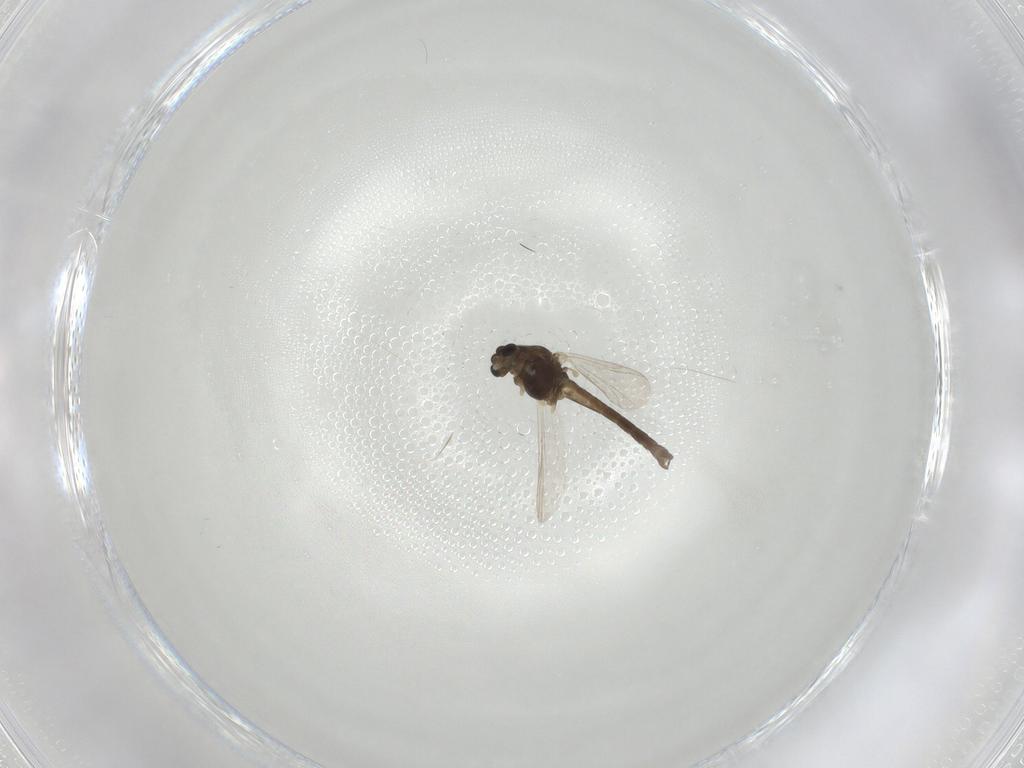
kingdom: Animalia
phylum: Arthropoda
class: Insecta
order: Diptera
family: Chironomidae
